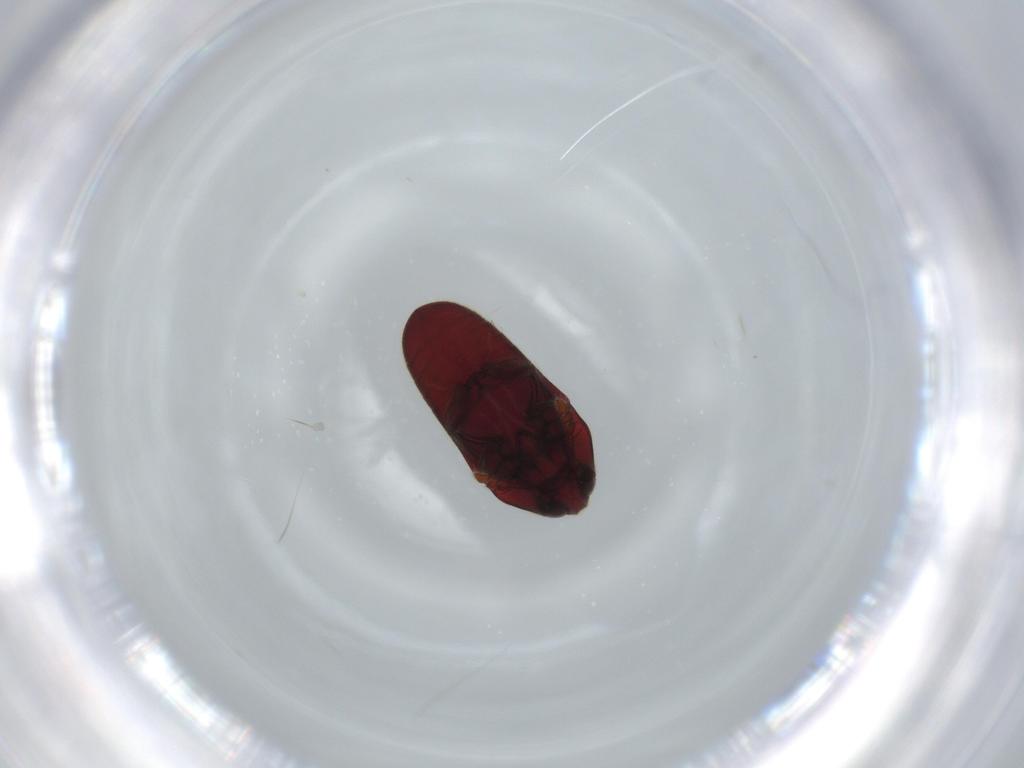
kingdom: Animalia
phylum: Arthropoda
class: Insecta
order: Coleoptera
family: Throscidae
